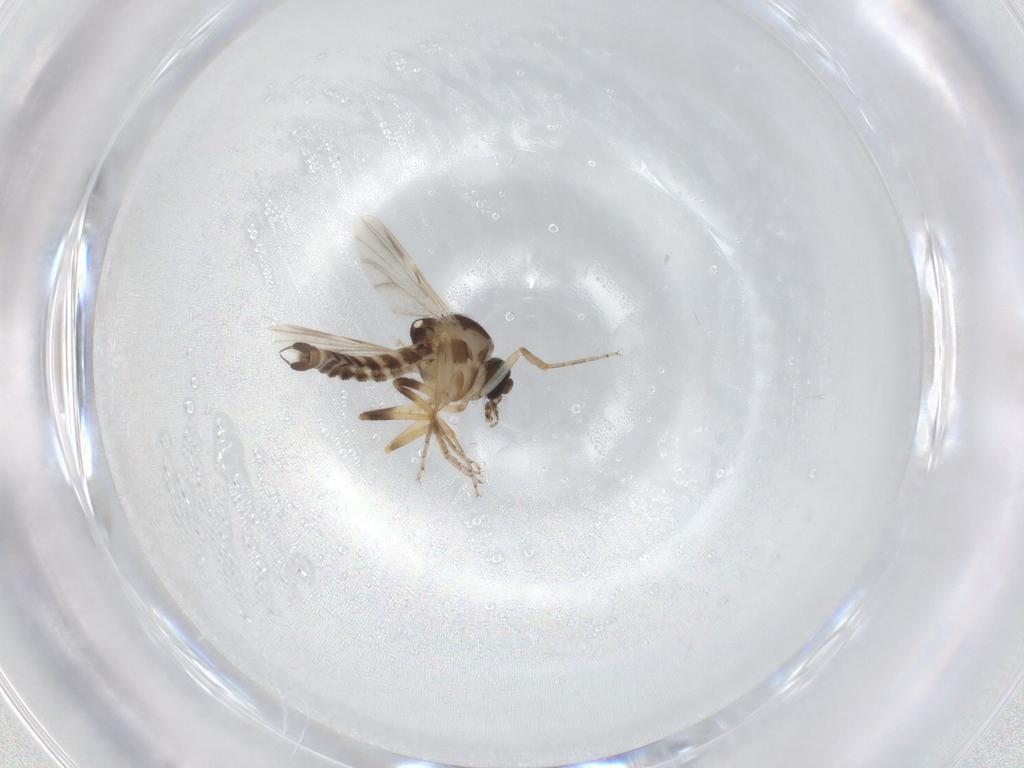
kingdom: Animalia
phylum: Arthropoda
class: Insecta
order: Diptera
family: Ceratopogonidae
